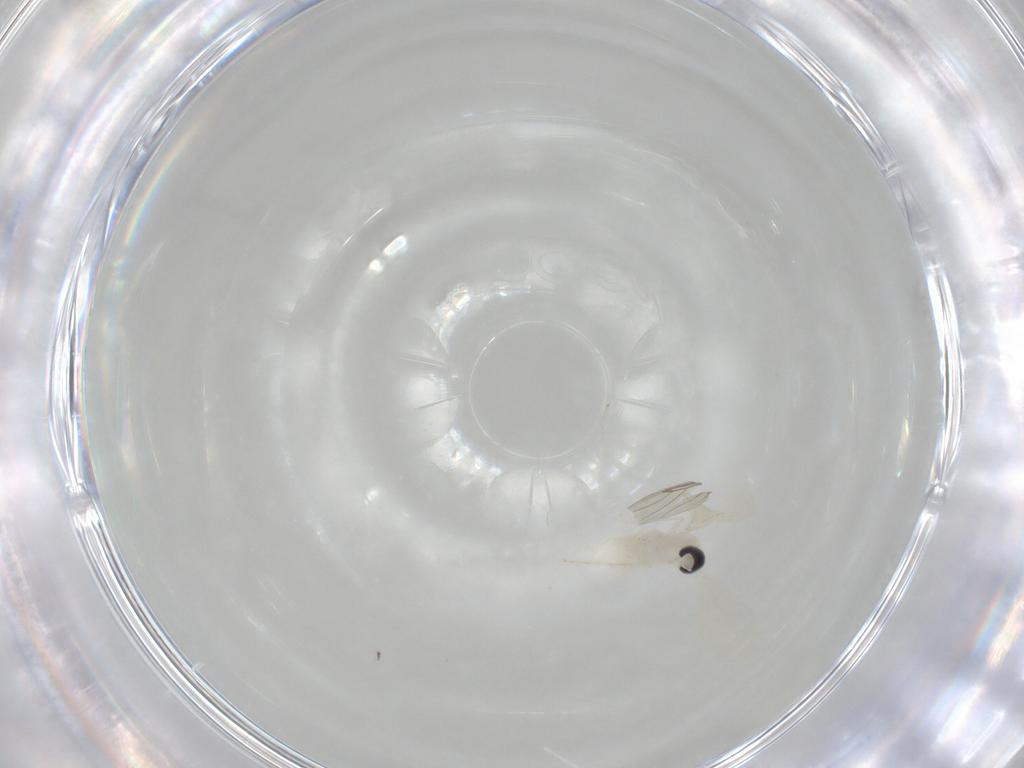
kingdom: Animalia
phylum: Arthropoda
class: Insecta
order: Diptera
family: Cecidomyiidae
